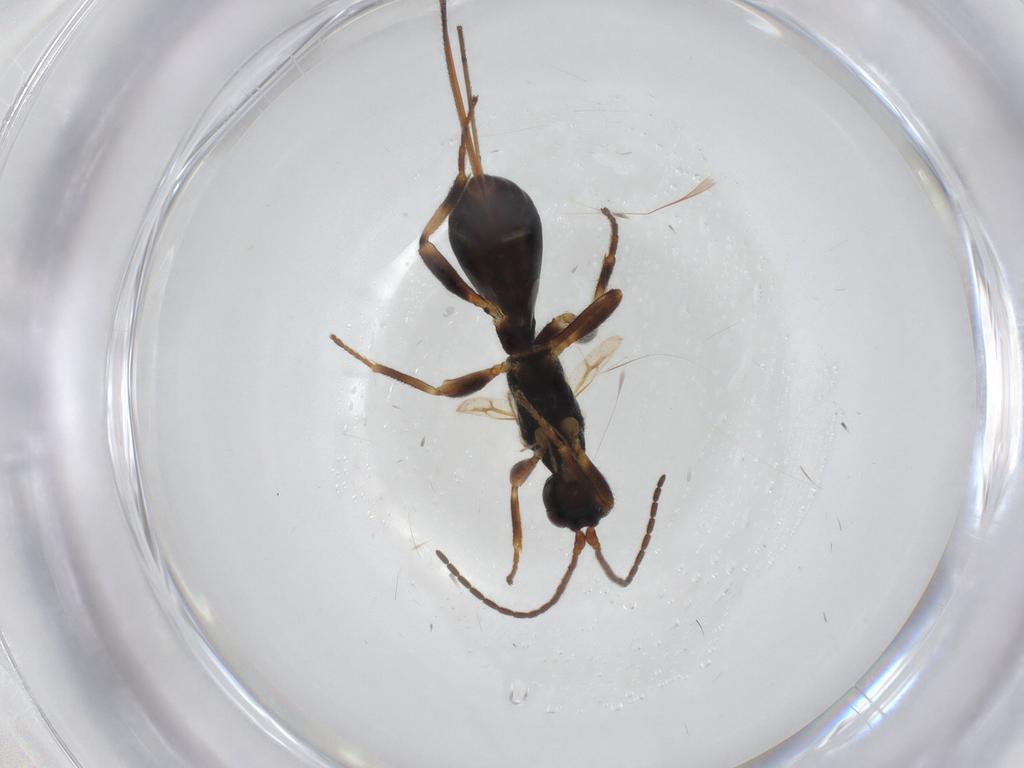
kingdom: Animalia
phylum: Arthropoda
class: Insecta
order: Hymenoptera
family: Braconidae
